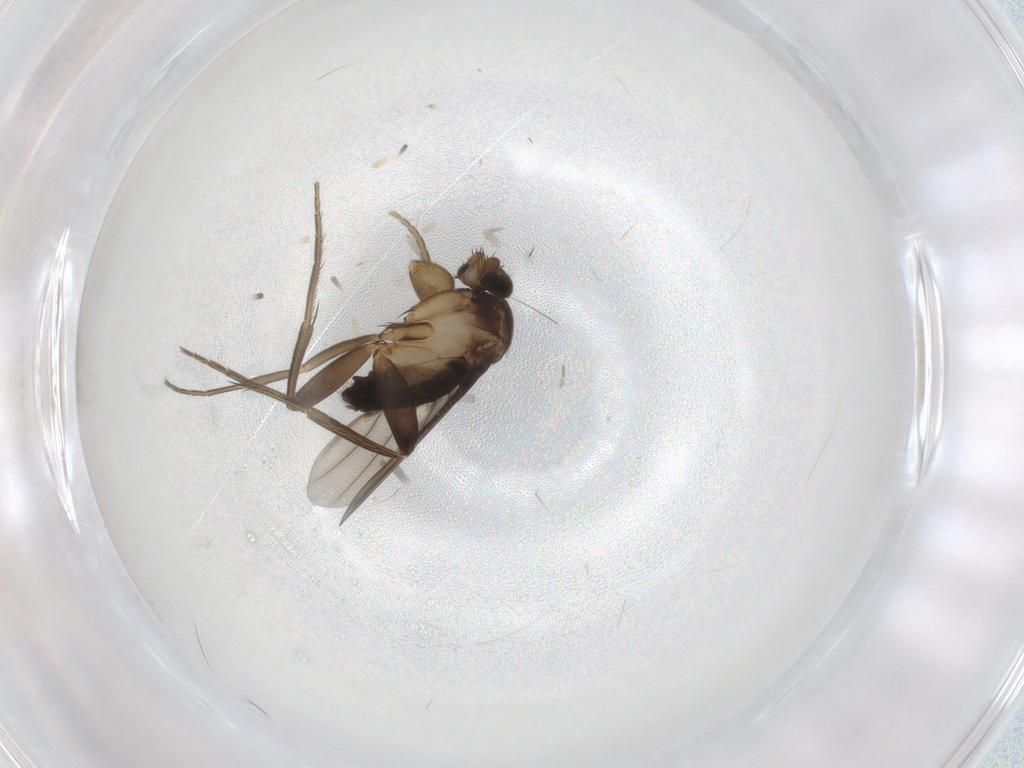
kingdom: Animalia
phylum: Arthropoda
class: Insecta
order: Diptera
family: Phoridae
